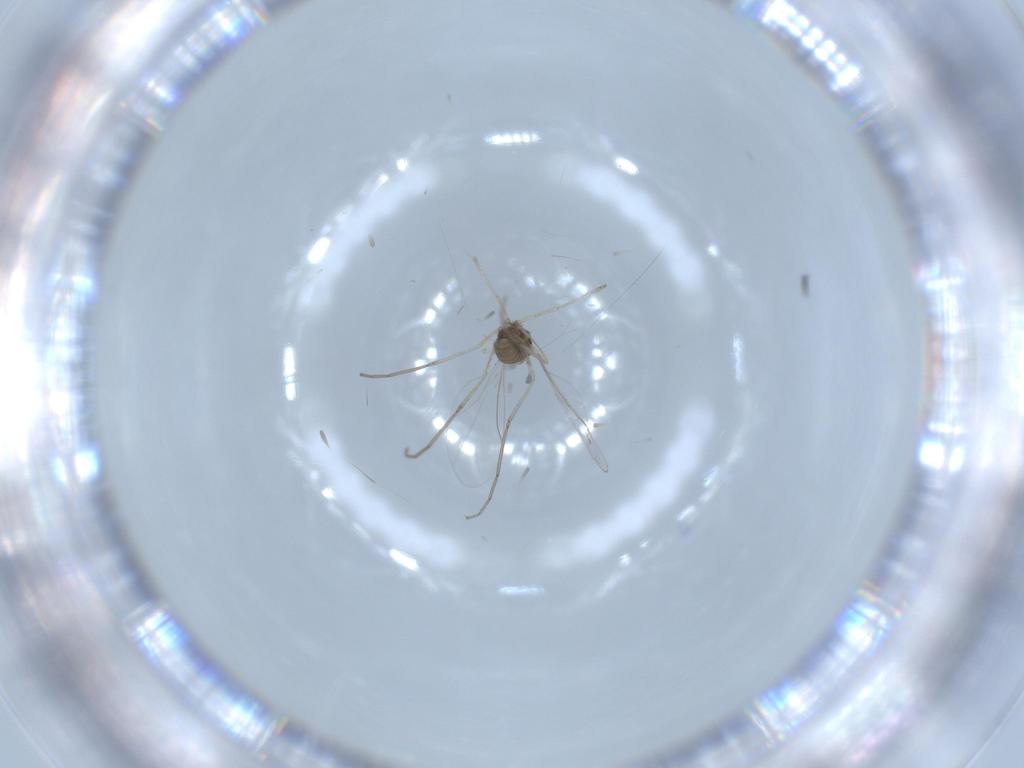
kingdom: Animalia
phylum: Arthropoda
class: Insecta
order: Diptera
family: Cecidomyiidae
